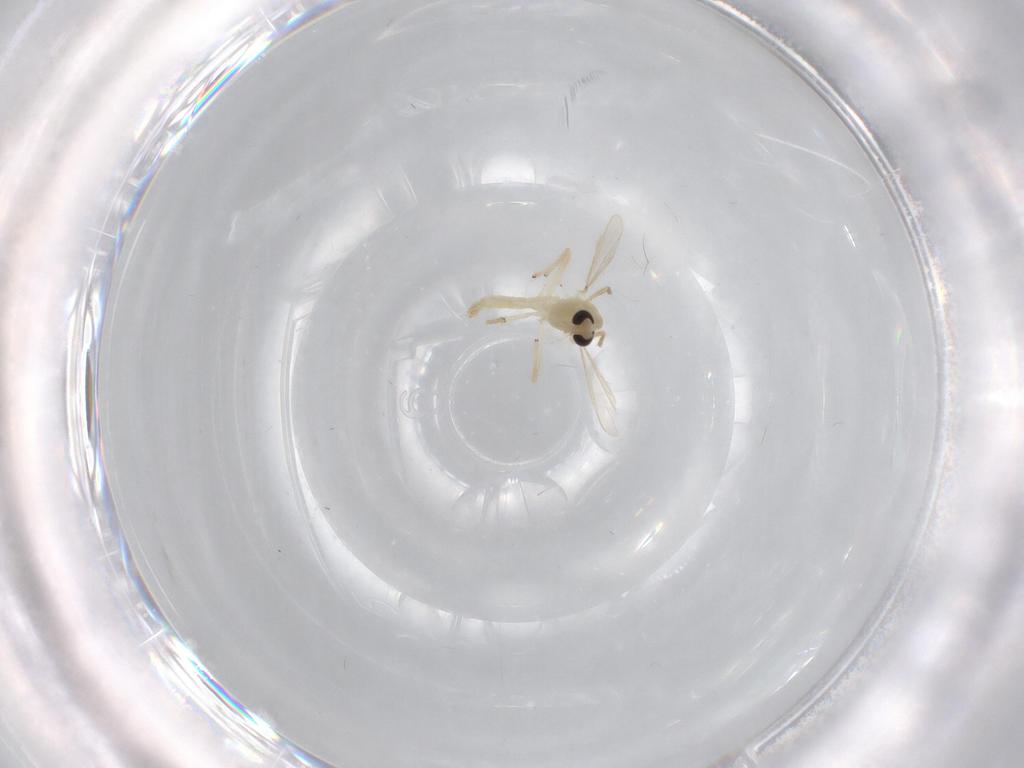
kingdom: Animalia
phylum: Arthropoda
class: Insecta
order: Diptera
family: Chironomidae
